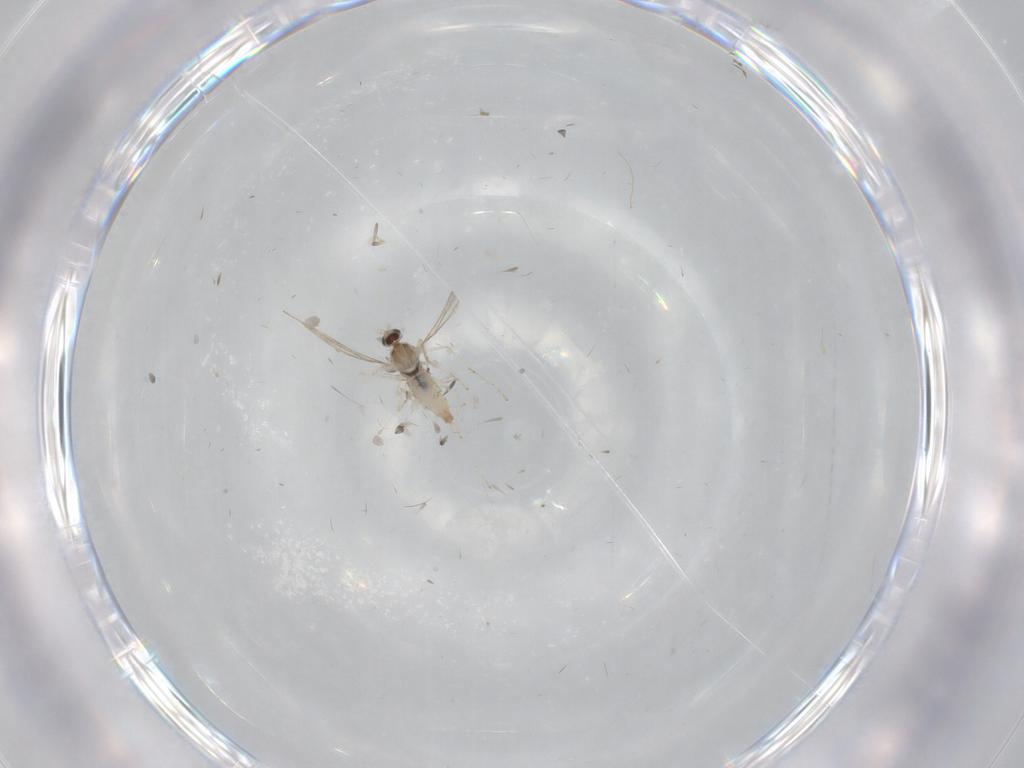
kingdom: Animalia
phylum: Arthropoda
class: Insecta
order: Diptera
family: Cecidomyiidae
